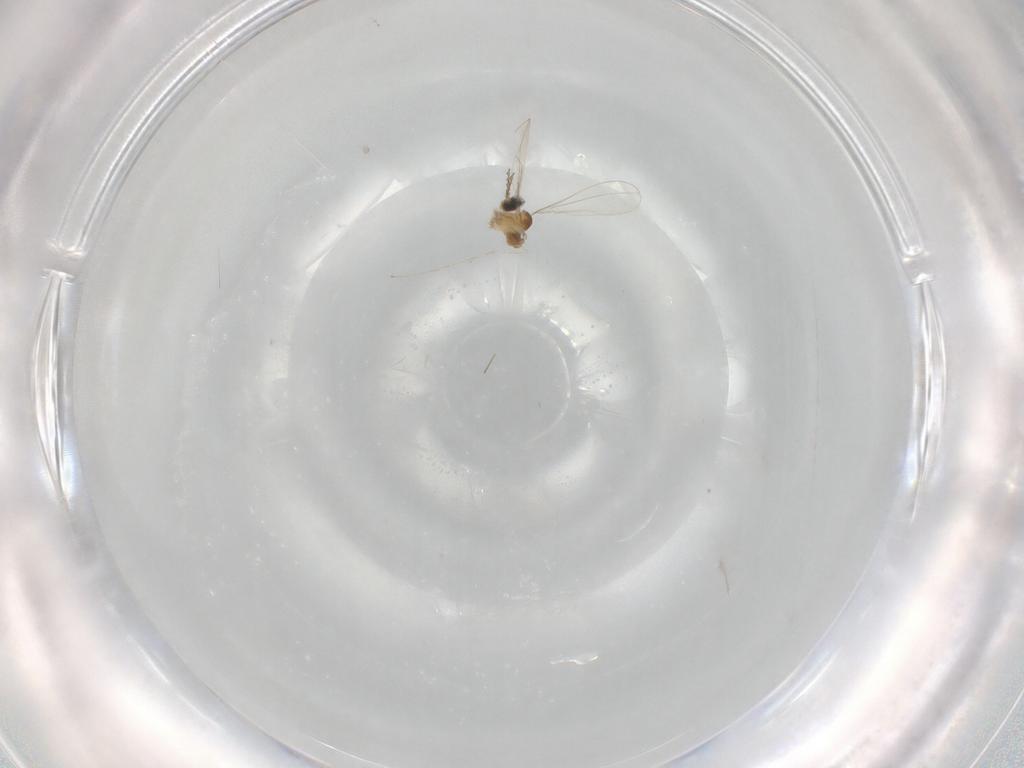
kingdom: Animalia
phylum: Arthropoda
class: Insecta
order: Diptera
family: Cecidomyiidae
